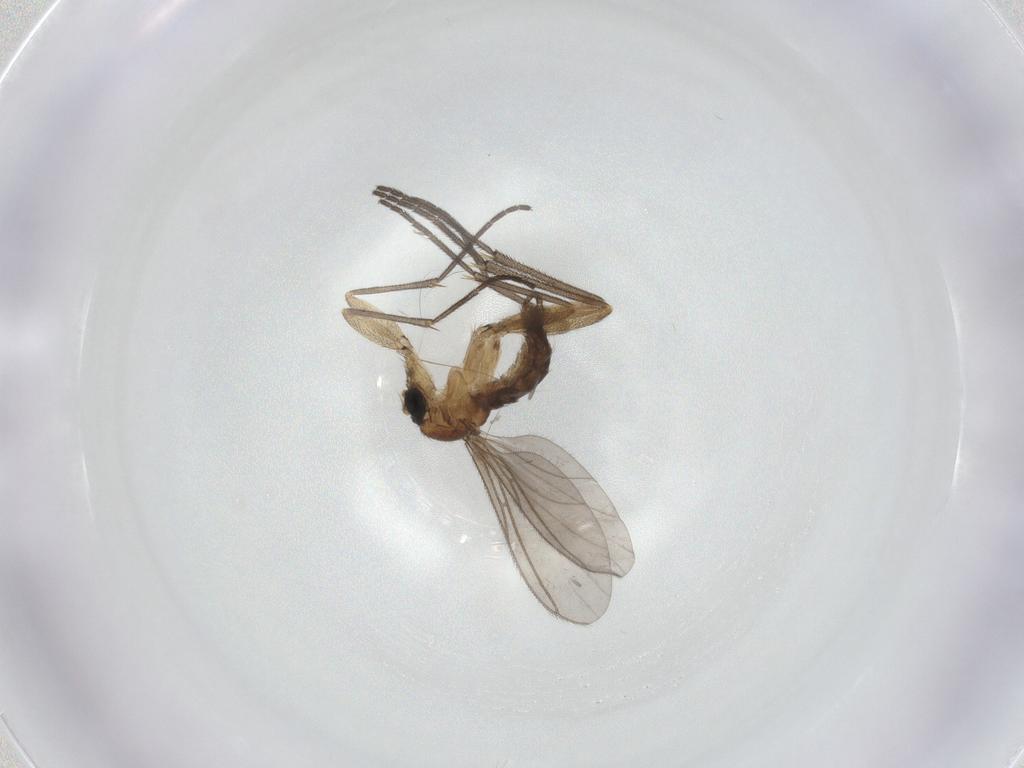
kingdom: Animalia
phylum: Arthropoda
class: Insecta
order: Diptera
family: Sciaridae
